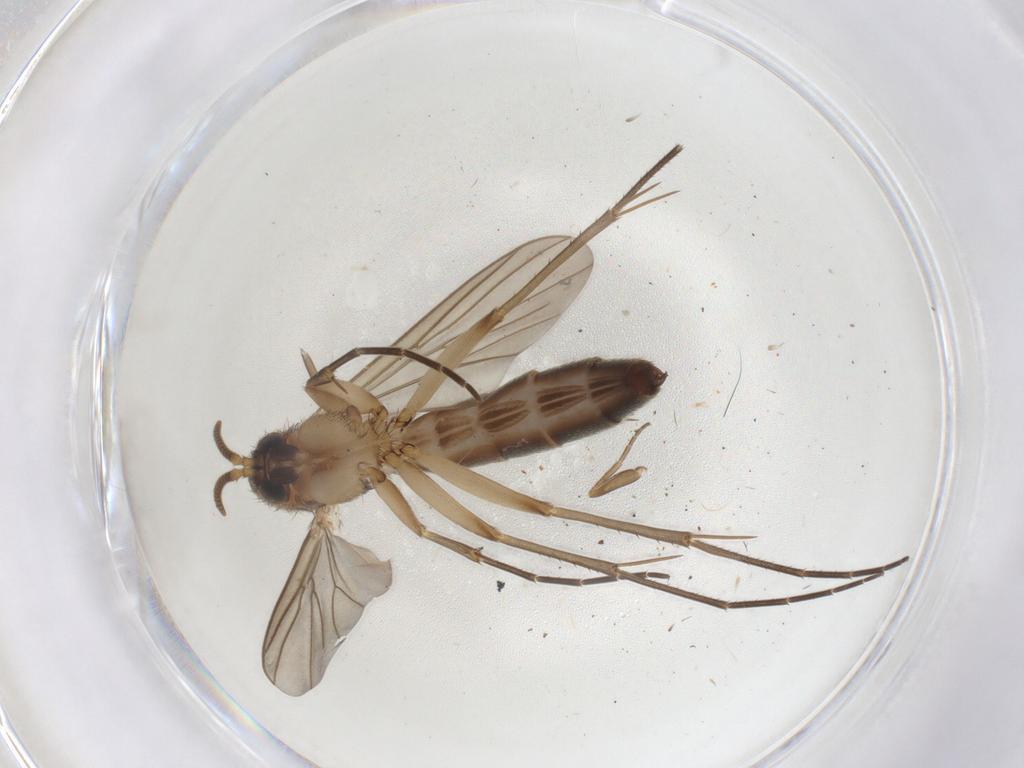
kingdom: Animalia
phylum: Arthropoda
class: Insecta
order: Diptera
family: Mycetophilidae
